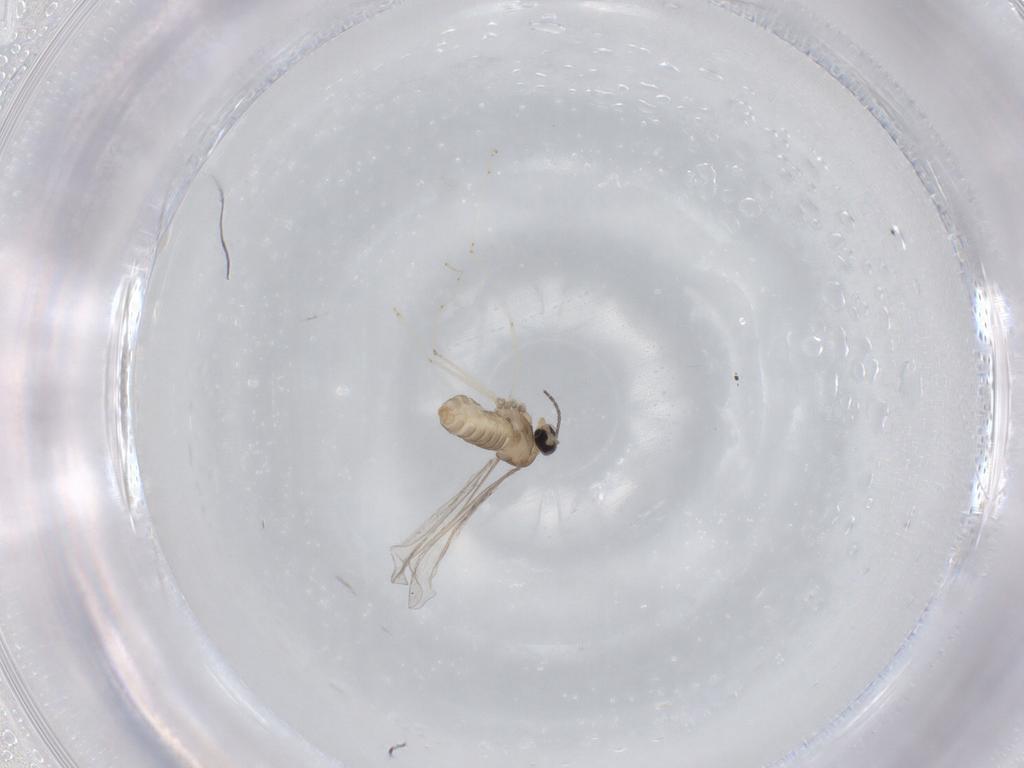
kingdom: Animalia
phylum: Arthropoda
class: Insecta
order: Diptera
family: Cecidomyiidae
